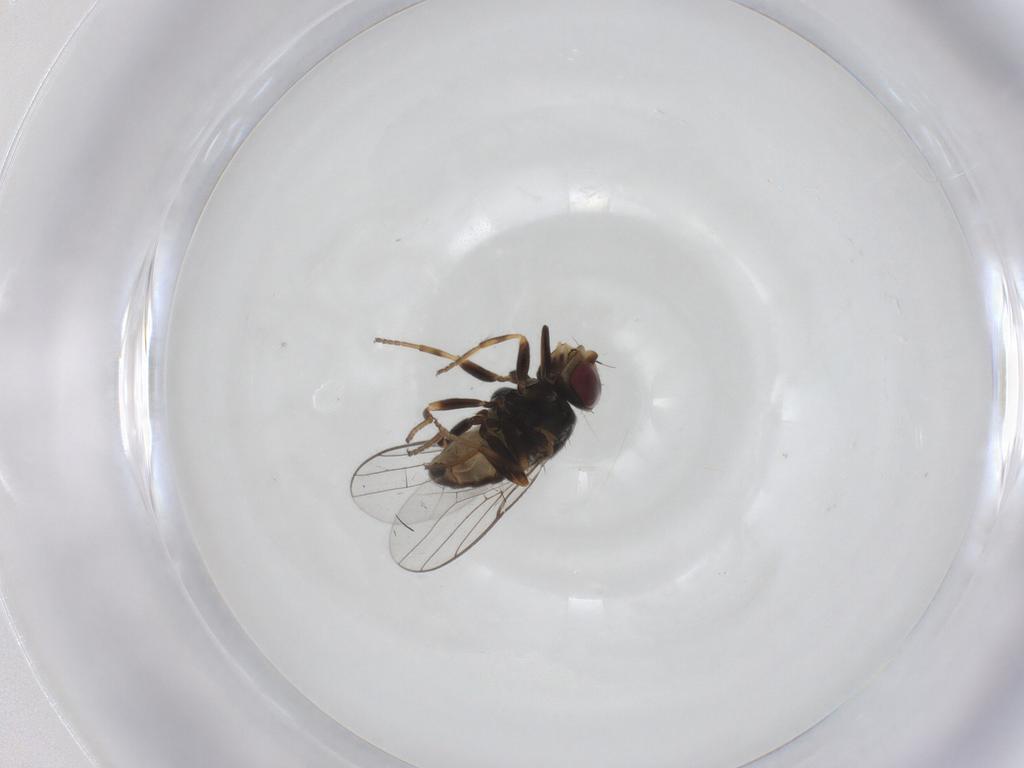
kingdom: Animalia
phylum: Arthropoda
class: Insecta
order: Diptera
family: Chloropidae
